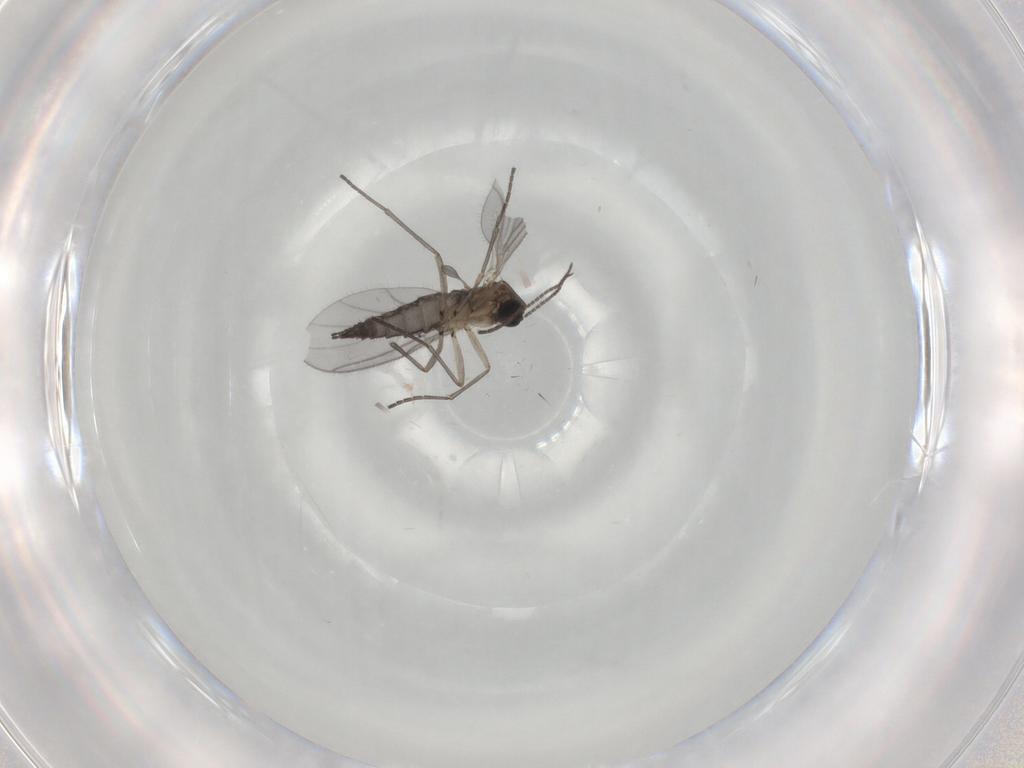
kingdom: Animalia
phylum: Arthropoda
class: Insecta
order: Diptera
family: Sciaridae
